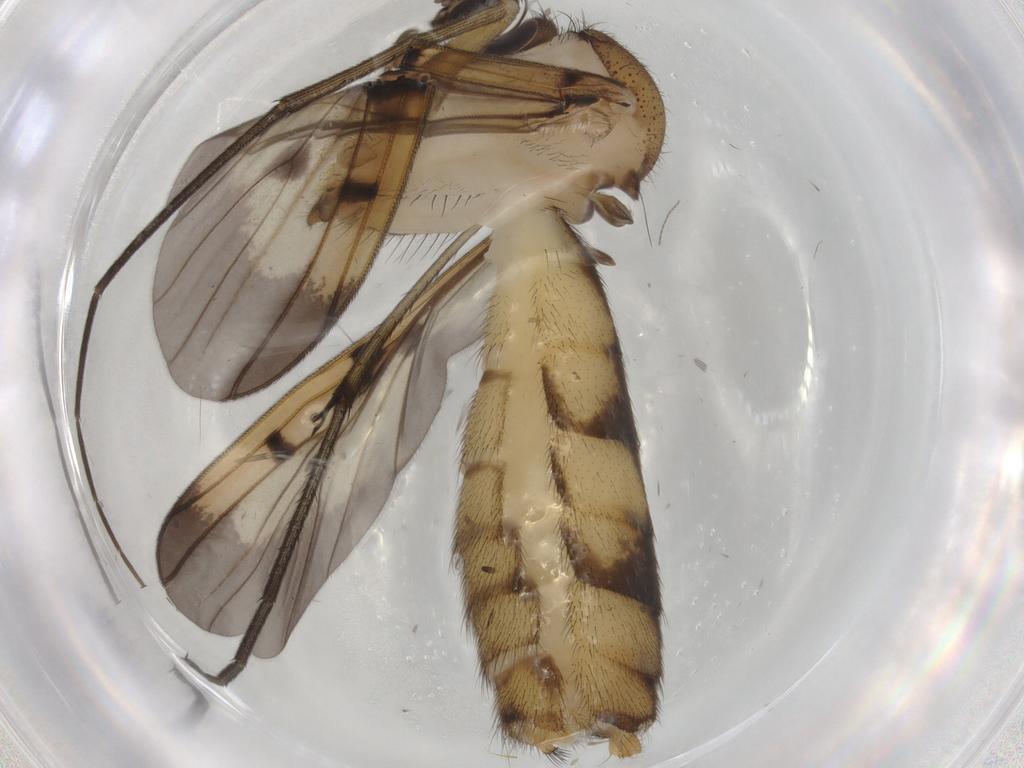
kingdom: Animalia
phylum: Arthropoda
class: Insecta
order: Diptera
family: Mycetophilidae
